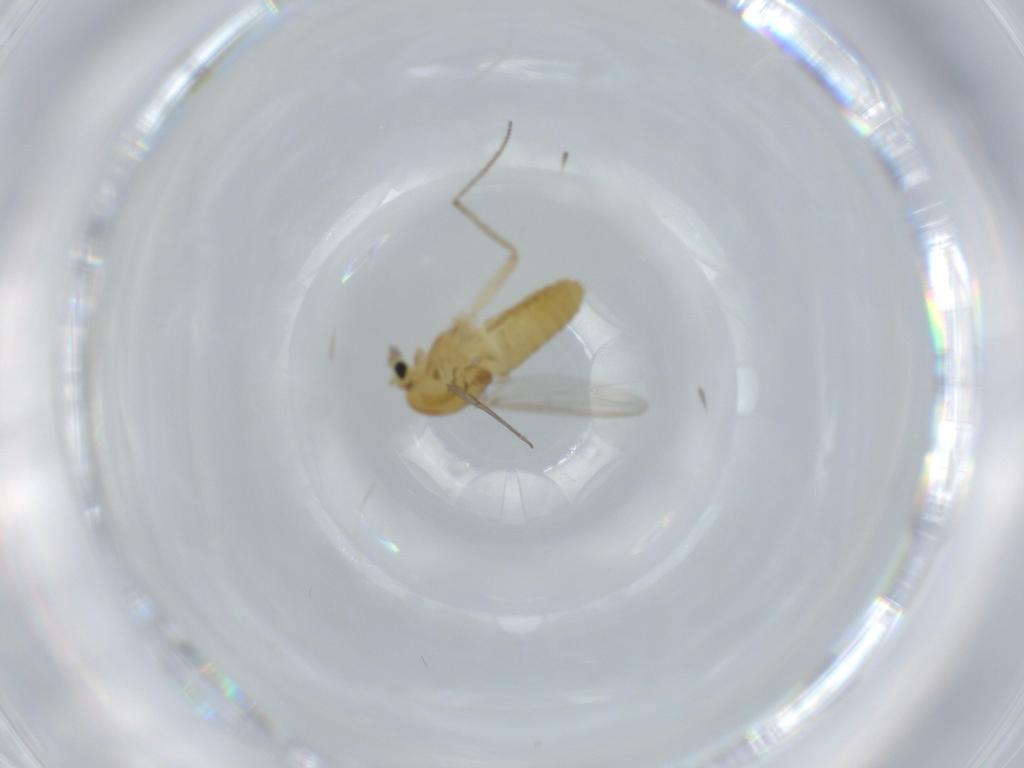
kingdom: Animalia
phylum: Arthropoda
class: Insecta
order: Diptera
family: Chironomidae
